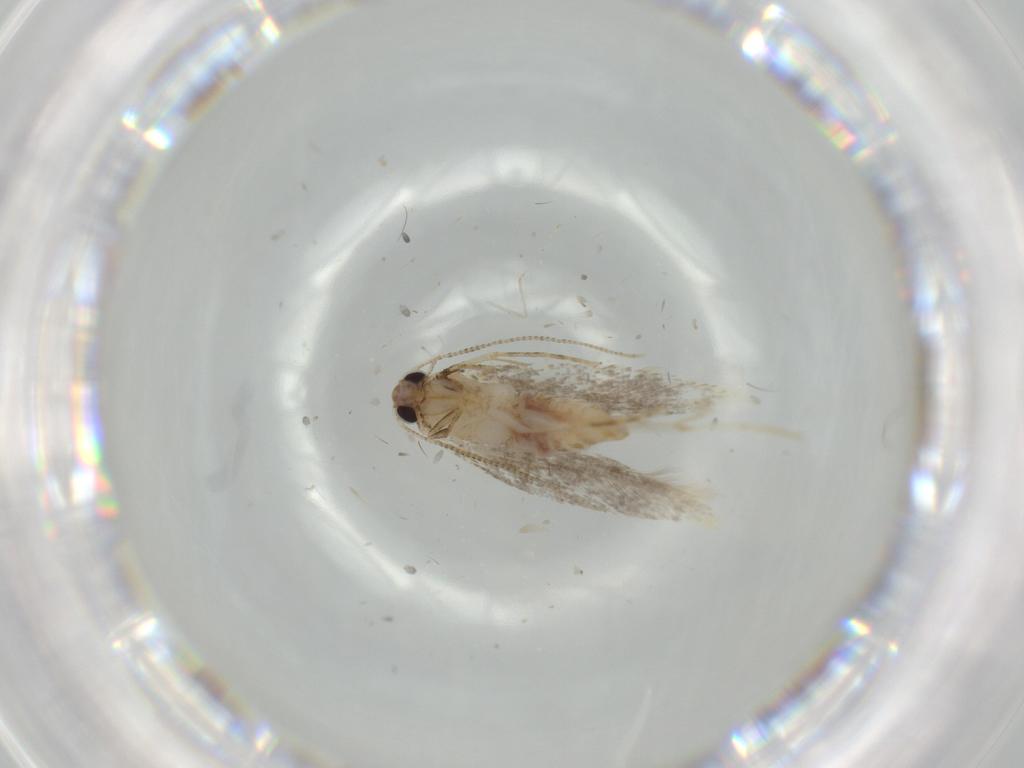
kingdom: Animalia
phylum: Arthropoda
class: Insecta
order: Lepidoptera
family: Tineidae
